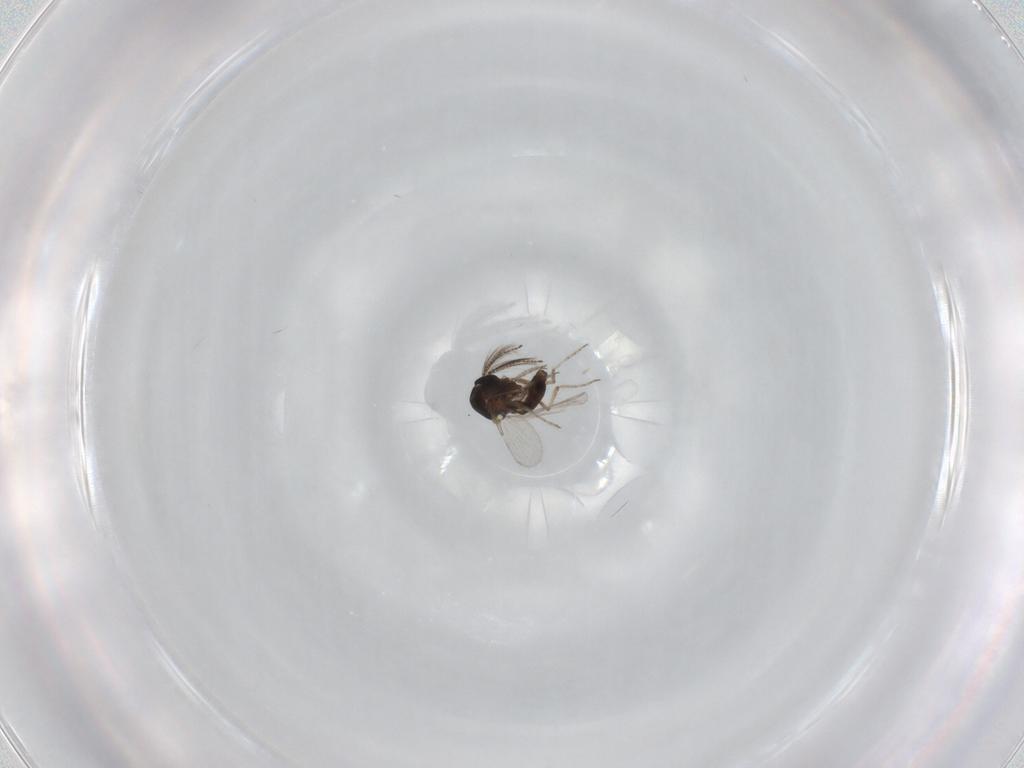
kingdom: Animalia
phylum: Arthropoda
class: Insecta
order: Diptera
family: Ceratopogonidae
